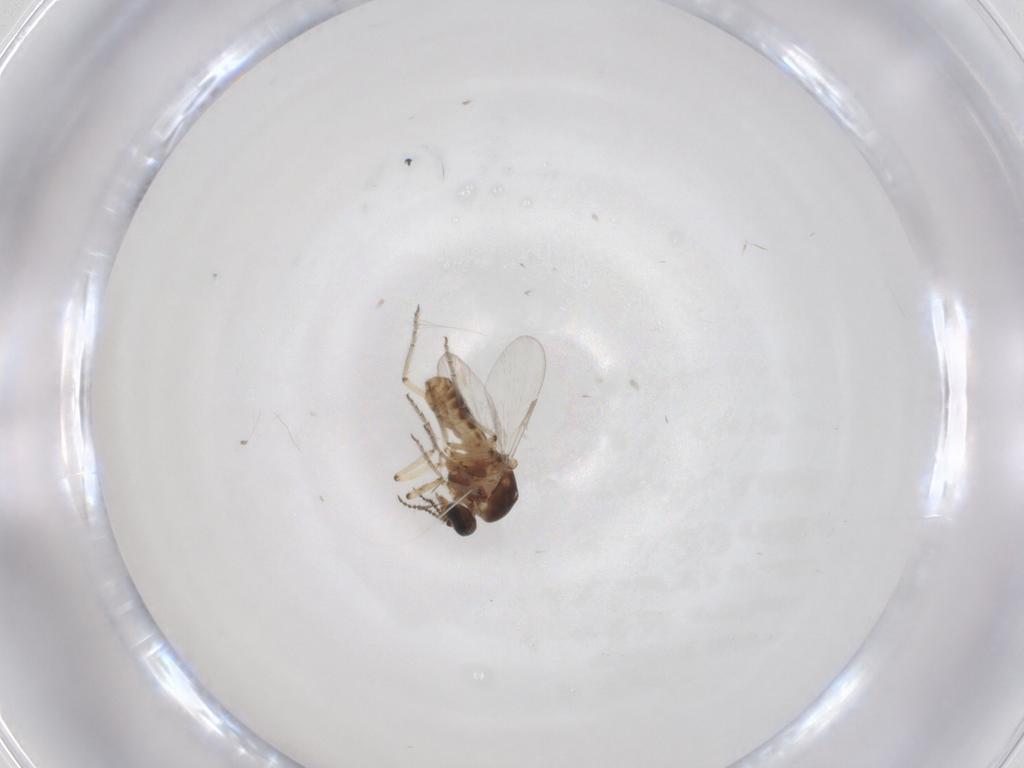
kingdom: Animalia
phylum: Arthropoda
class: Insecta
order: Diptera
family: Ceratopogonidae
